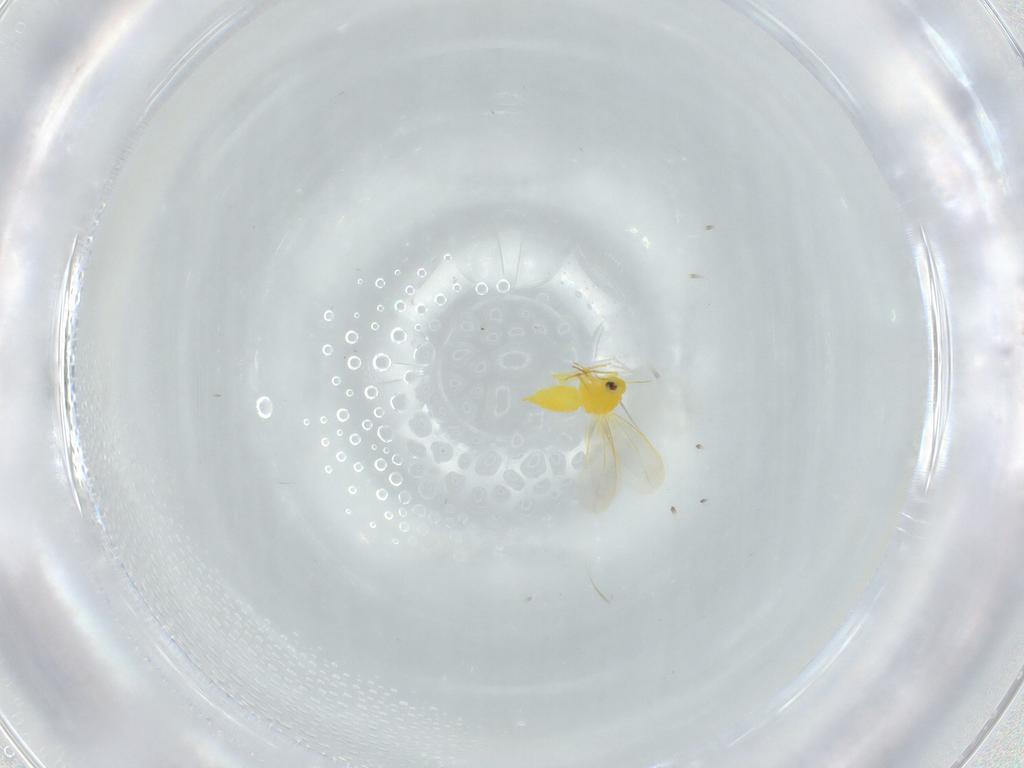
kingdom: Animalia
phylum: Arthropoda
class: Insecta
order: Hemiptera
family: Aleyrodidae
